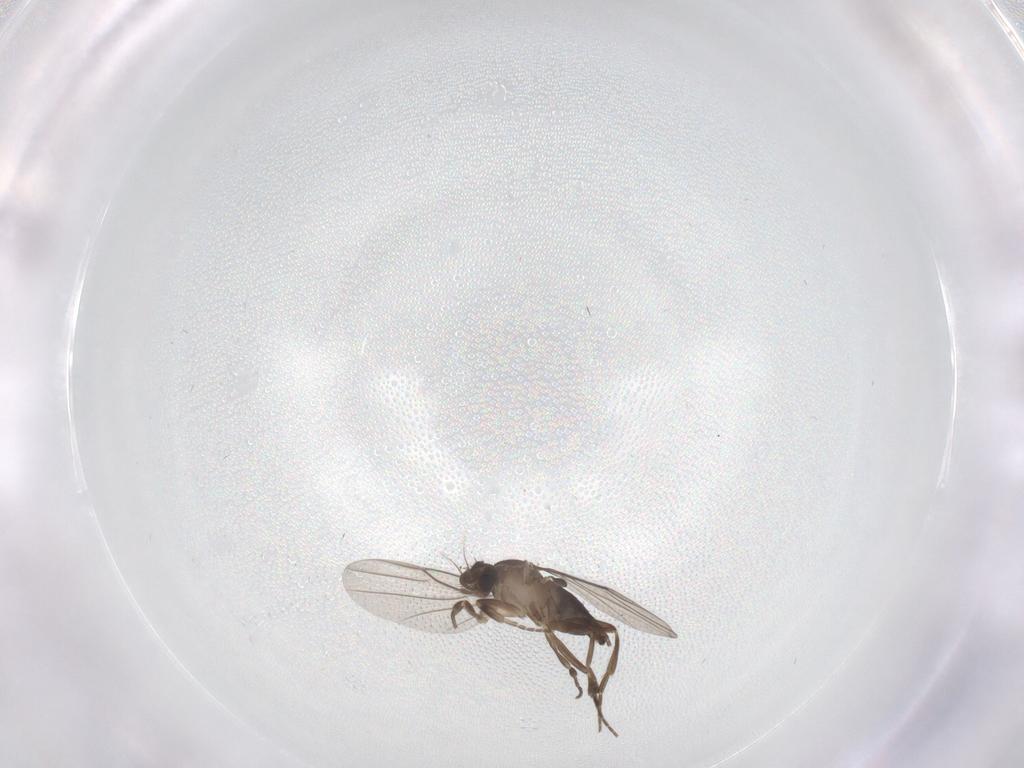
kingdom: Animalia
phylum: Arthropoda
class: Insecta
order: Diptera
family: Phoridae
